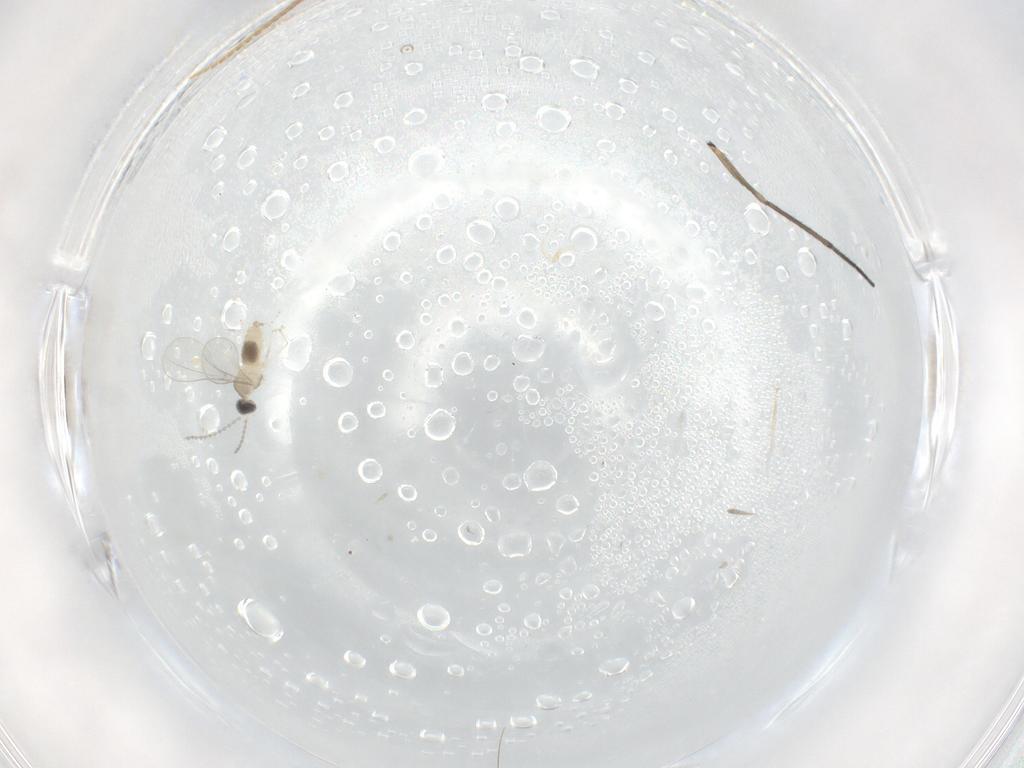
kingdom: Animalia
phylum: Arthropoda
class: Insecta
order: Diptera
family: Sciaridae
